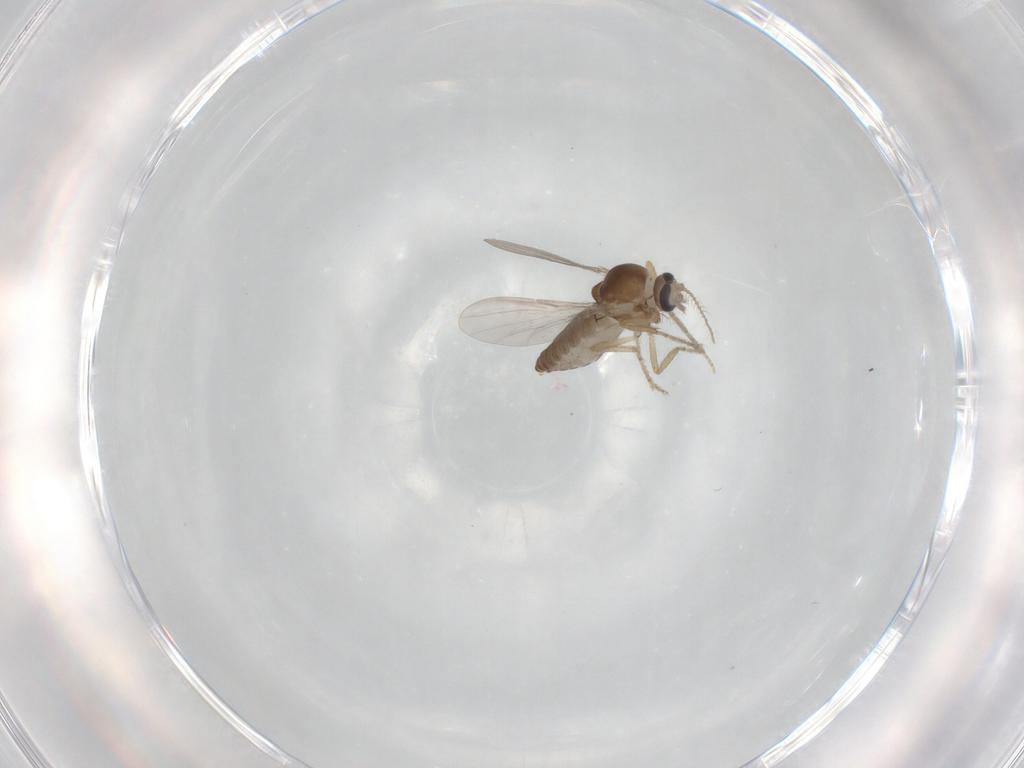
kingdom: Animalia
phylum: Arthropoda
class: Insecta
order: Diptera
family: Ceratopogonidae
